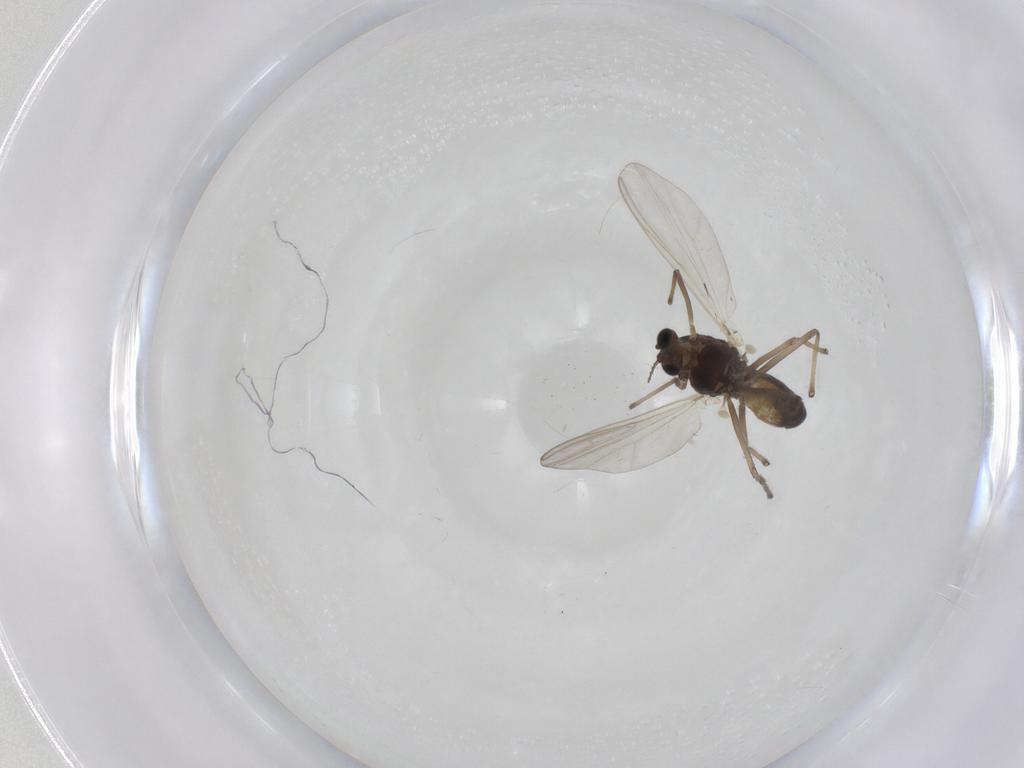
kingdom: Animalia
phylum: Arthropoda
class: Insecta
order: Diptera
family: Chironomidae
